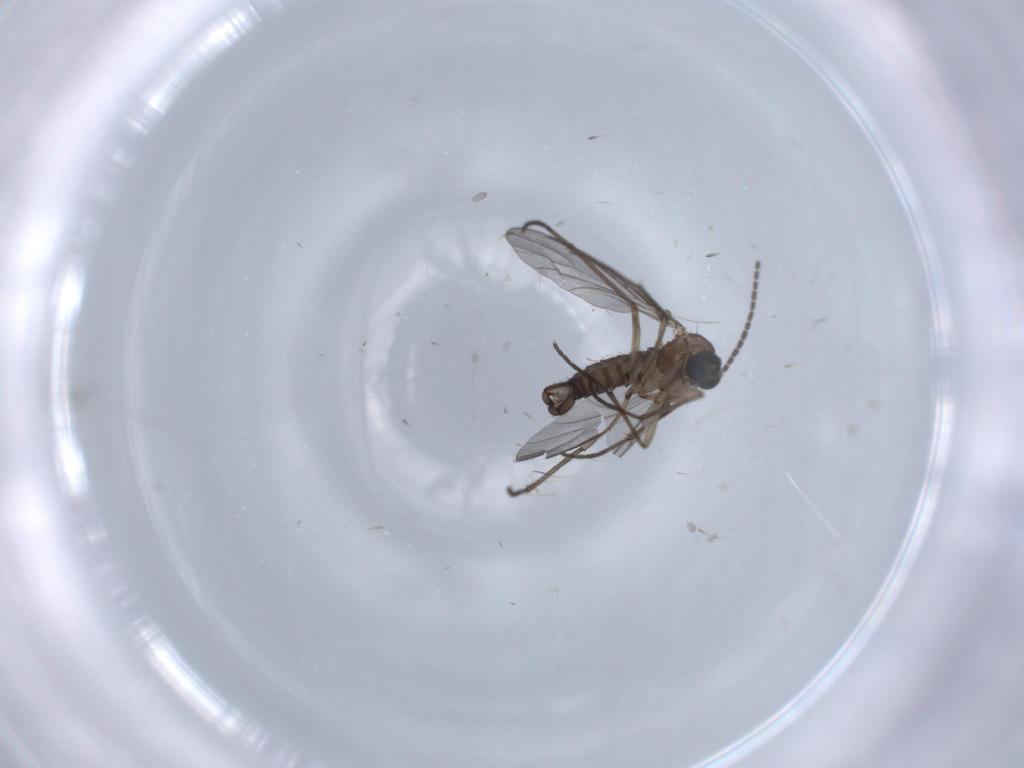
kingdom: Animalia
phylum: Arthropoda
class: Insecta
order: Diptera
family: Sciaridae
